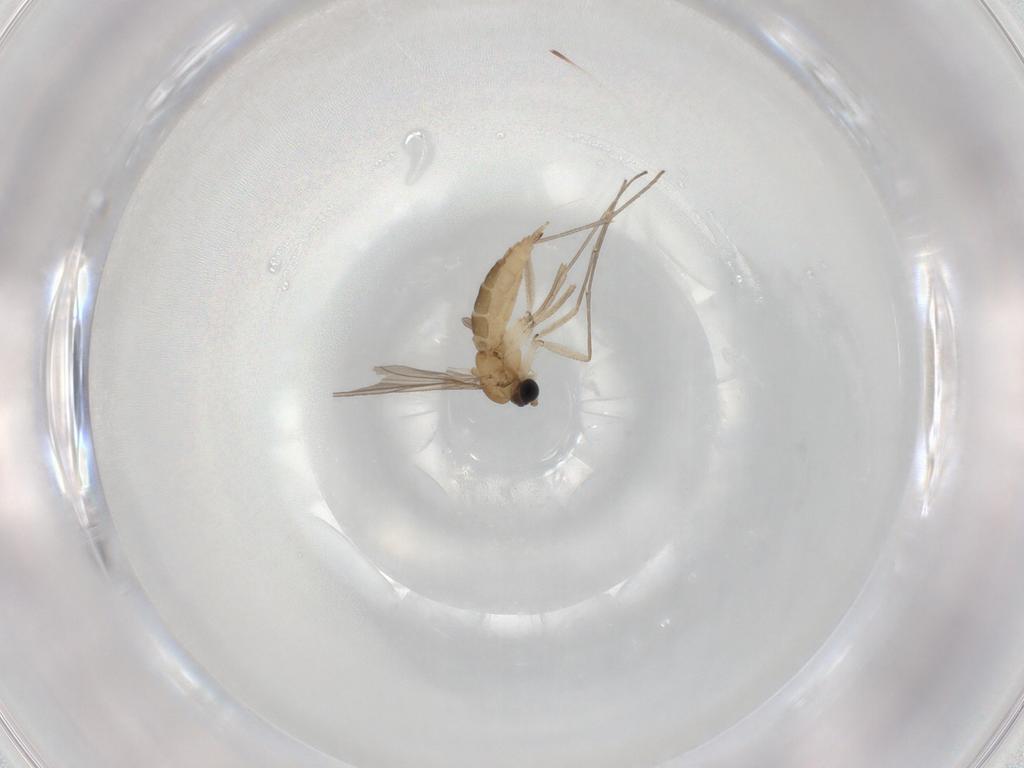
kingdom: Animalia
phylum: Arthropoda
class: Insecta
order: Diptera
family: Sciaridae
